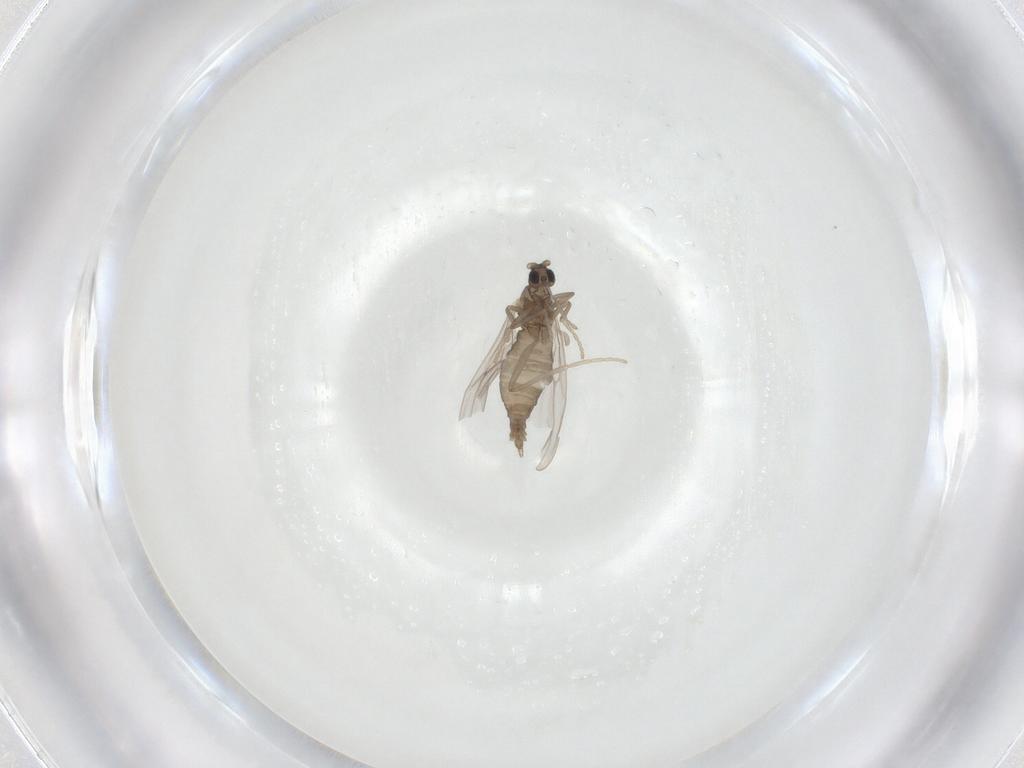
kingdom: Animalia
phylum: Arthropoda
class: Insecta
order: Diptera
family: Cecidomyiidae
